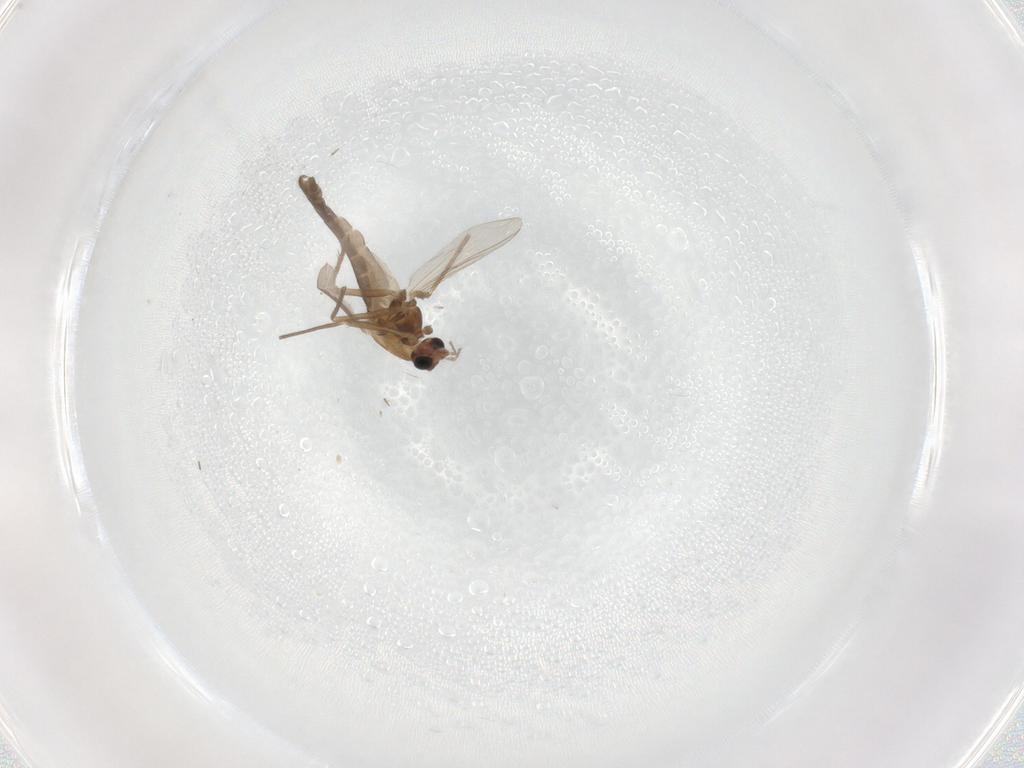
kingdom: Animalia
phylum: Arthropoda
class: Insecta
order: Diptera
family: Chironomidae
